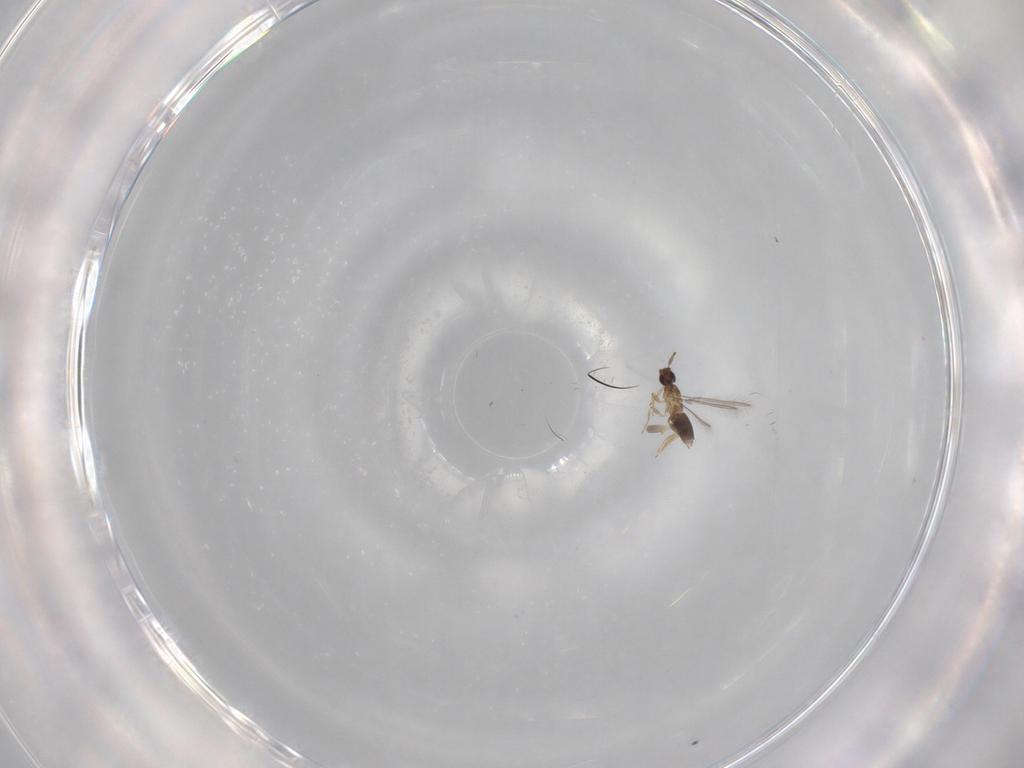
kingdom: Animalia
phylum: Arthropoda
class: Insecta
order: Hymenoptera
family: Mymaridae
